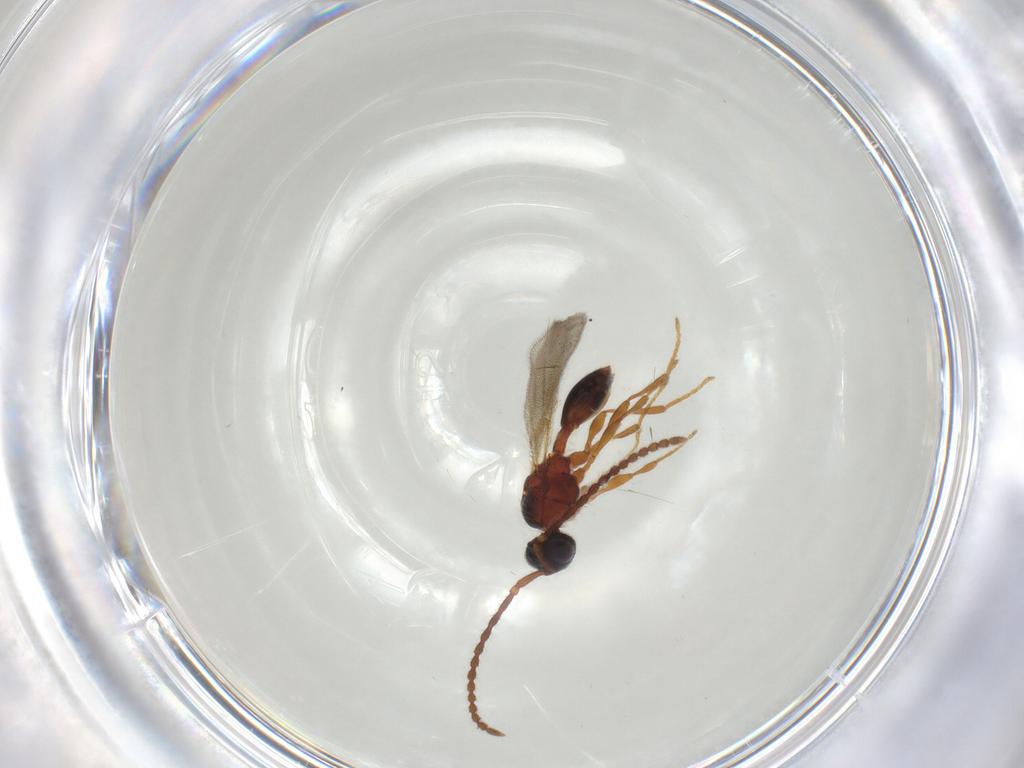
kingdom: Animalia
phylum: Arthropoda
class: Insecta
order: Hymenoptera
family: Diapriidae
